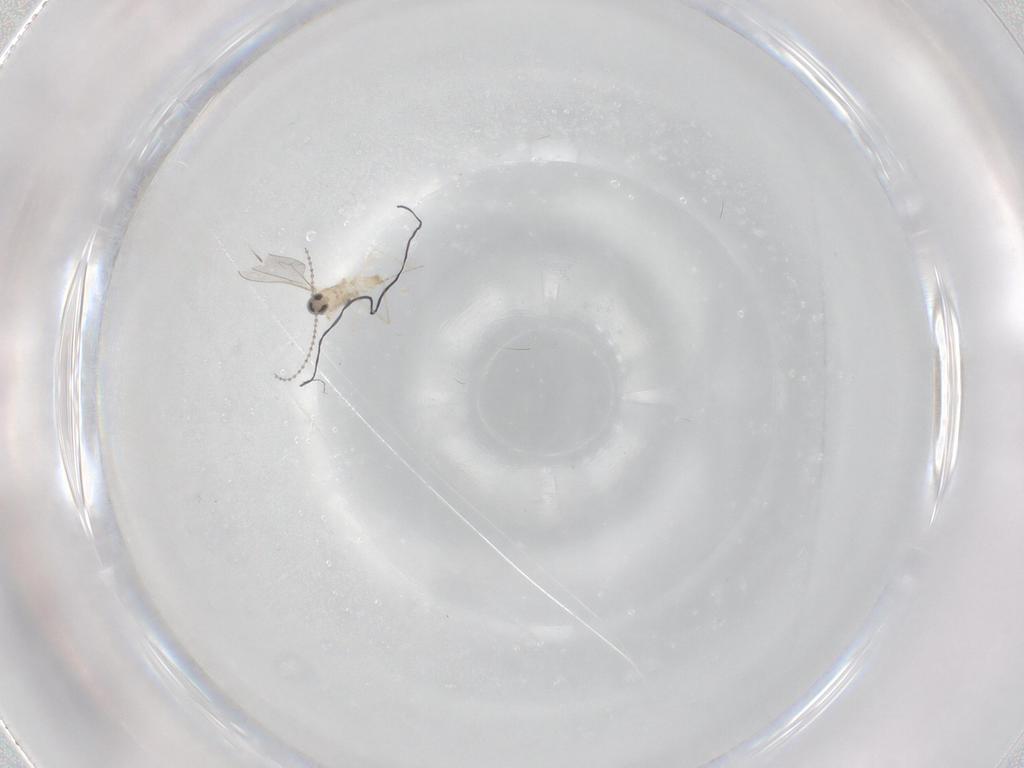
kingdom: Animalia
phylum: Arthropoda
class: Insecta
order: Diptera
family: Cecidomyiidae
